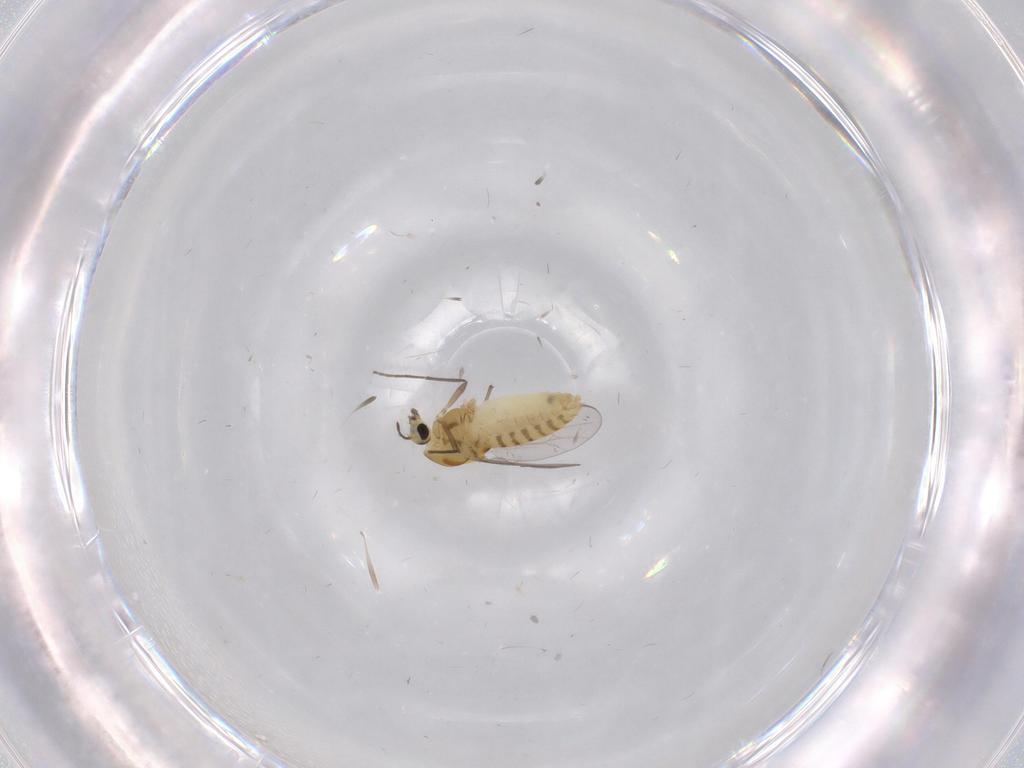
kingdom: Animalia
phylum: Arthropoda
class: Insecta
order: Diptera
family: Chironomidae
